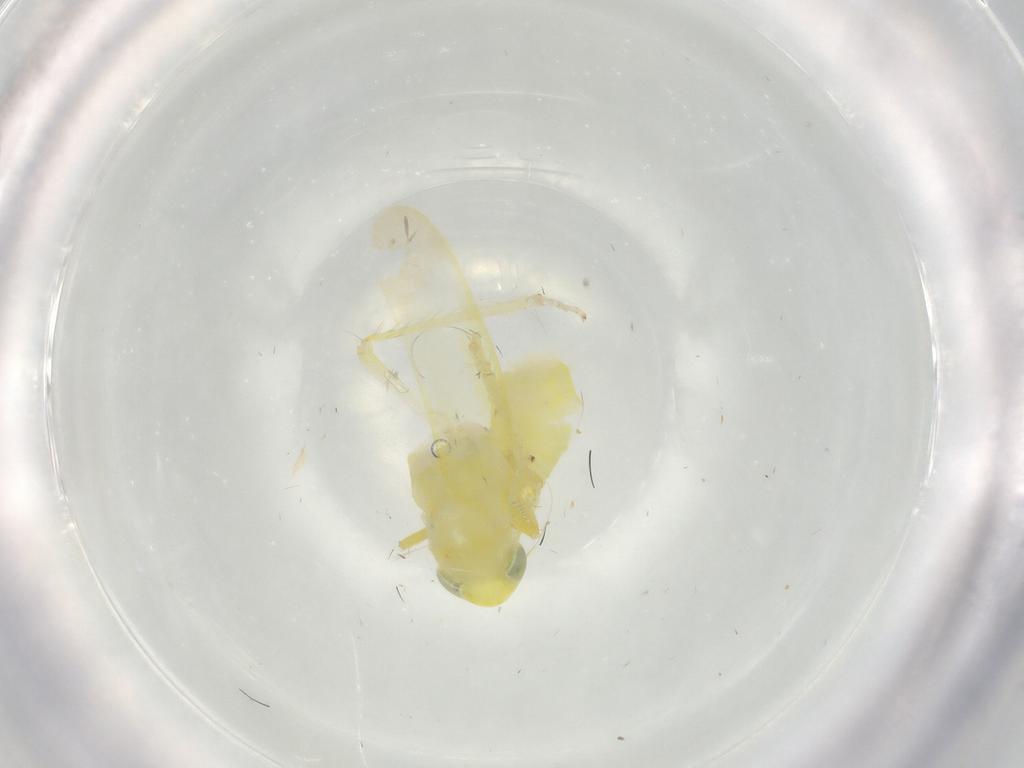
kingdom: Animalia
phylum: Arthropoda
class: Insecta
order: Hemiptera
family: Cicadellidae
